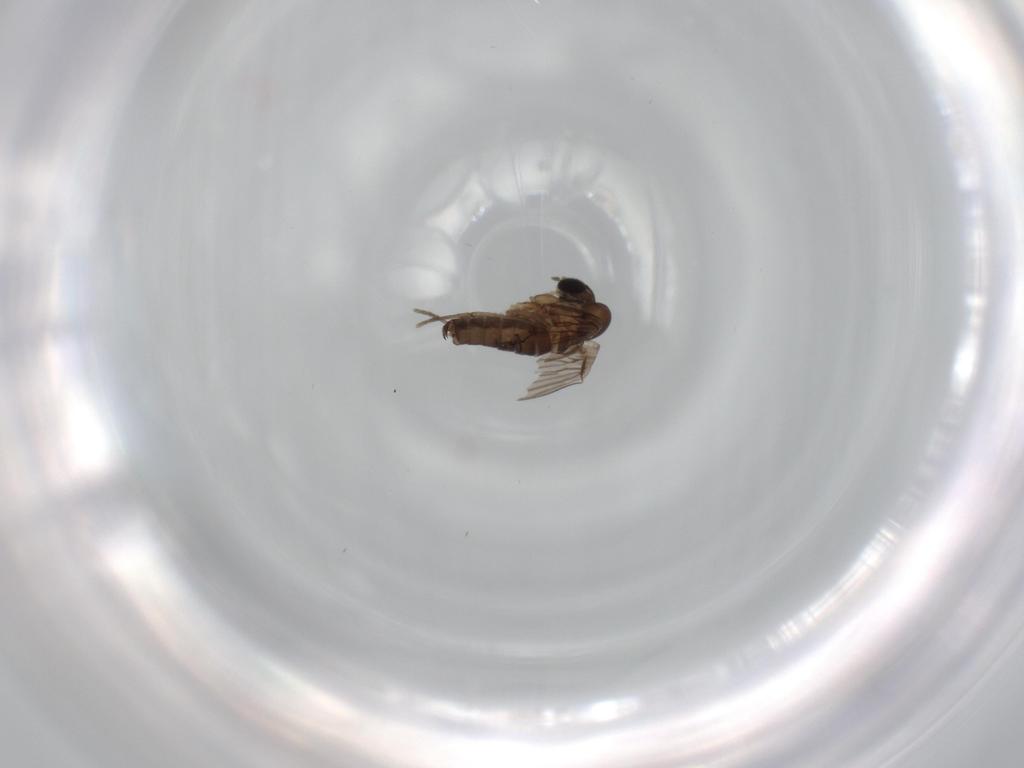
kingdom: Animalia
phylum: Arthropoda
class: Insecta
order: Diptera
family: Psychodidae
